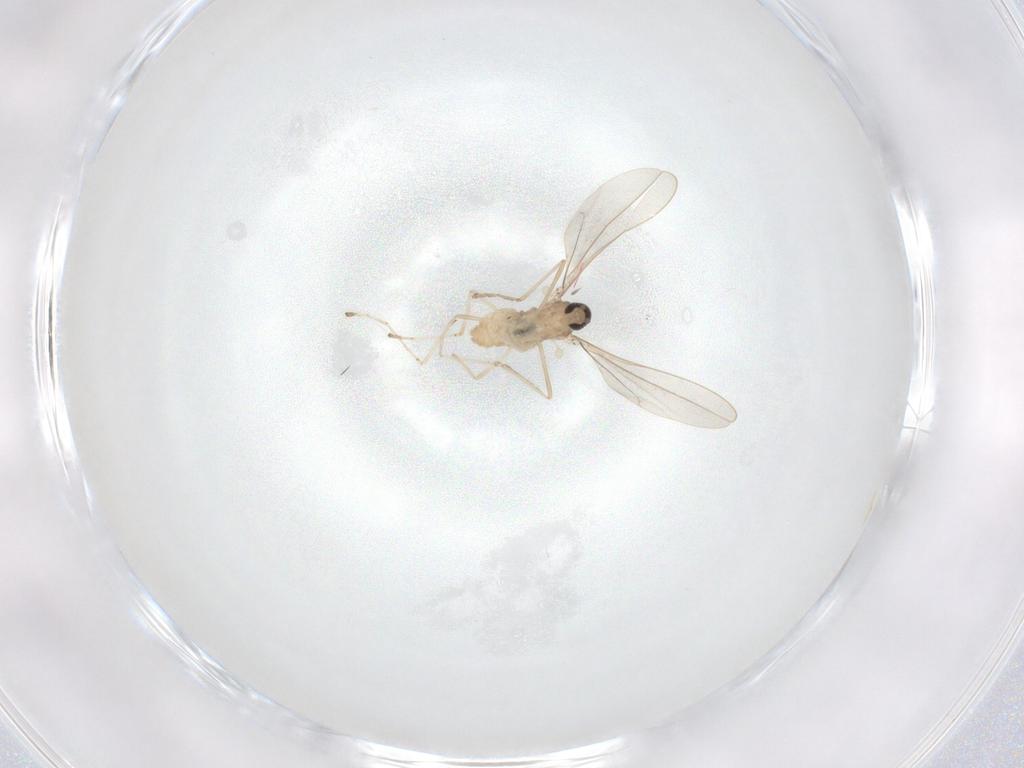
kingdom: Animalia
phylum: Arthropoda
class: Insecta
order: Diptera
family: Cecidomyiidae
